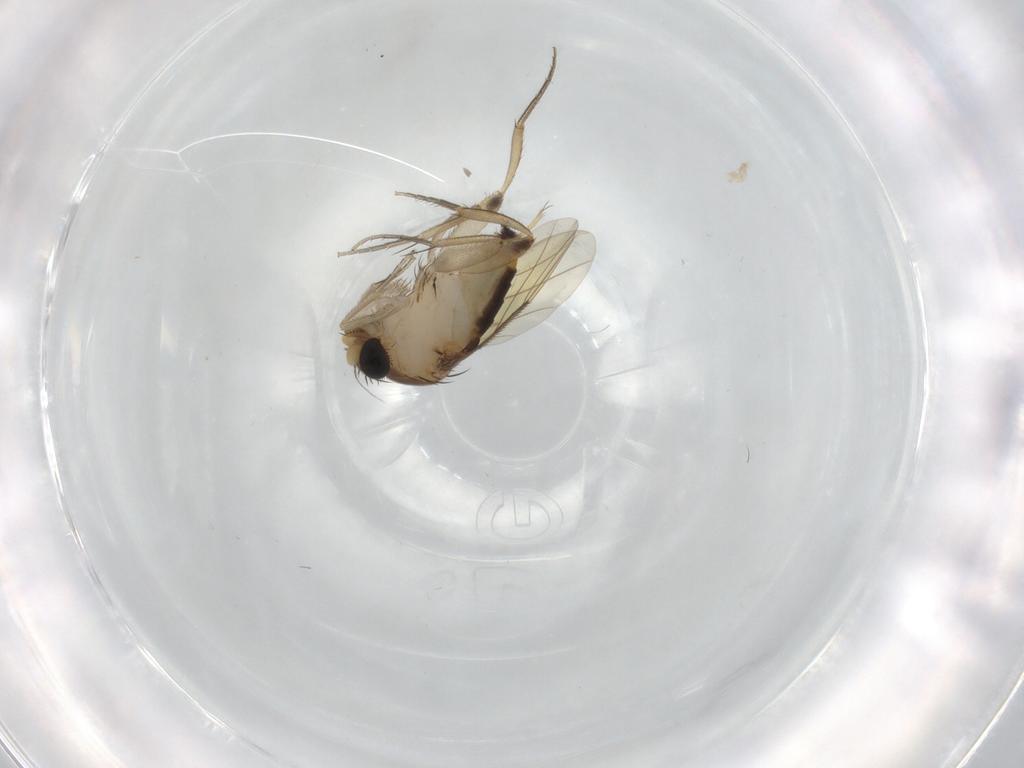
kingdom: Animalia
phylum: Arthropoda
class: Insecta
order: Diptera
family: Phoridae
